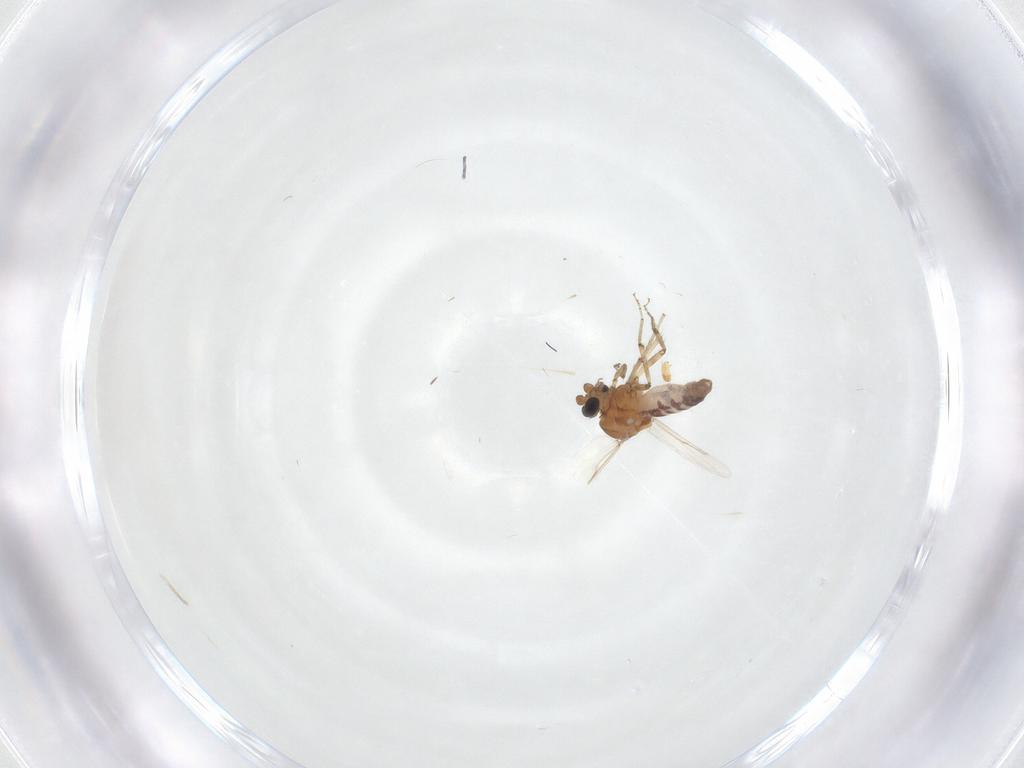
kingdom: Animalia
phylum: Arthropoda
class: Insecta
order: Diptera
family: Ceratopogonidae
